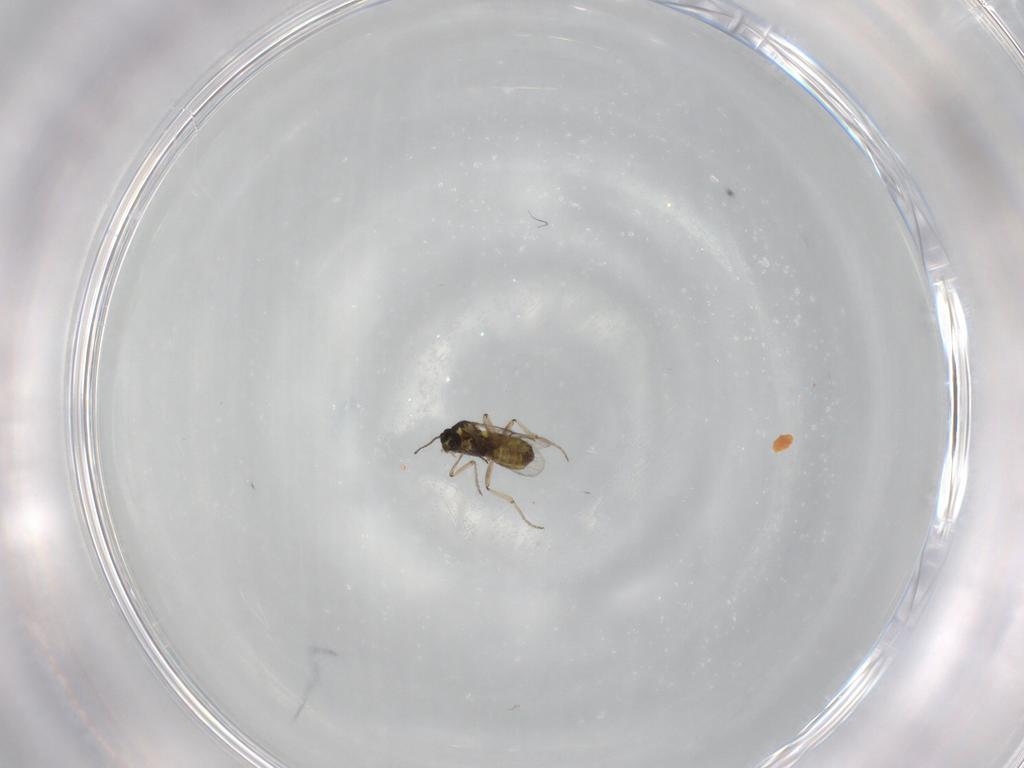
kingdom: Animalia
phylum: Arthropoda
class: Insecta
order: Diptera
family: Ceratopogonidae
